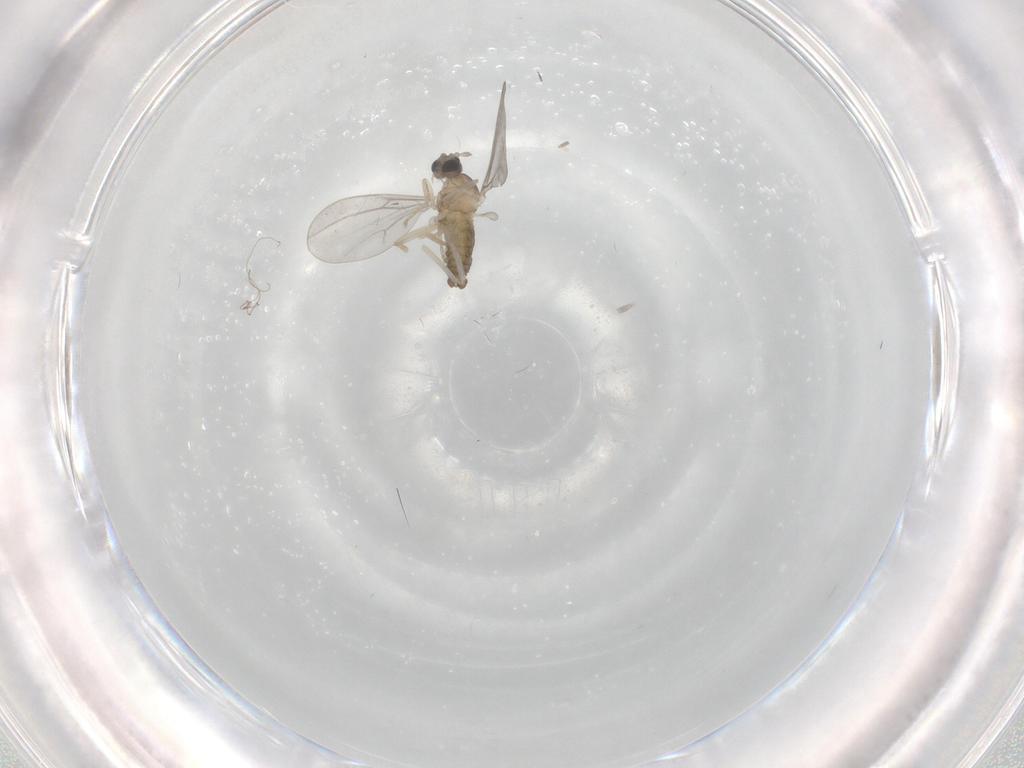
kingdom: Animalia
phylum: Arthropoda
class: Insecta
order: Diptera
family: Cecidomyiidae
